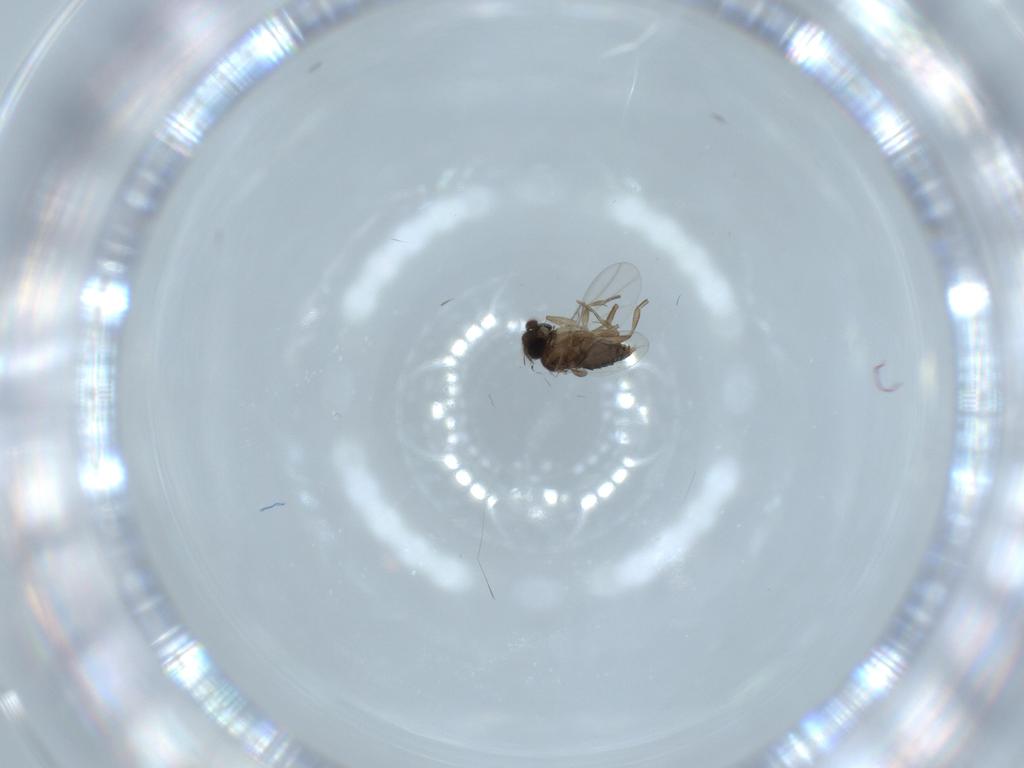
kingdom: Animalia
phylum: Arthropoda
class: Insecta
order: Diptera
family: Phoridae
